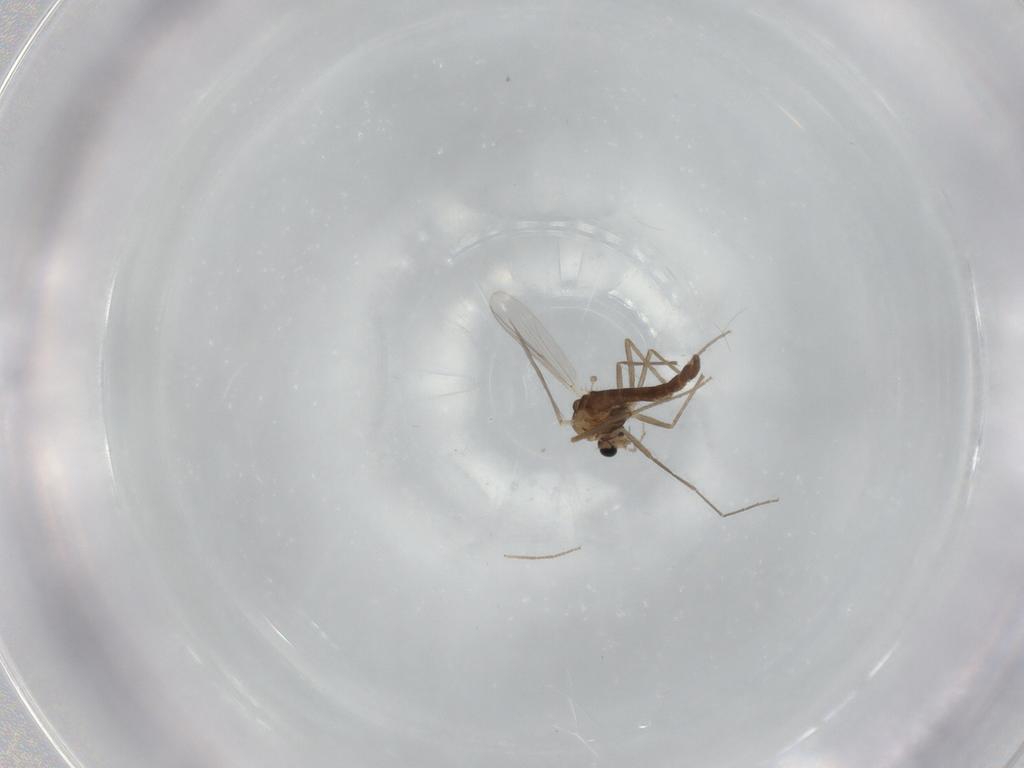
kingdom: Animalia
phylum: Arthropoda
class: Insecta
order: Diptera
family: Chironomidae
